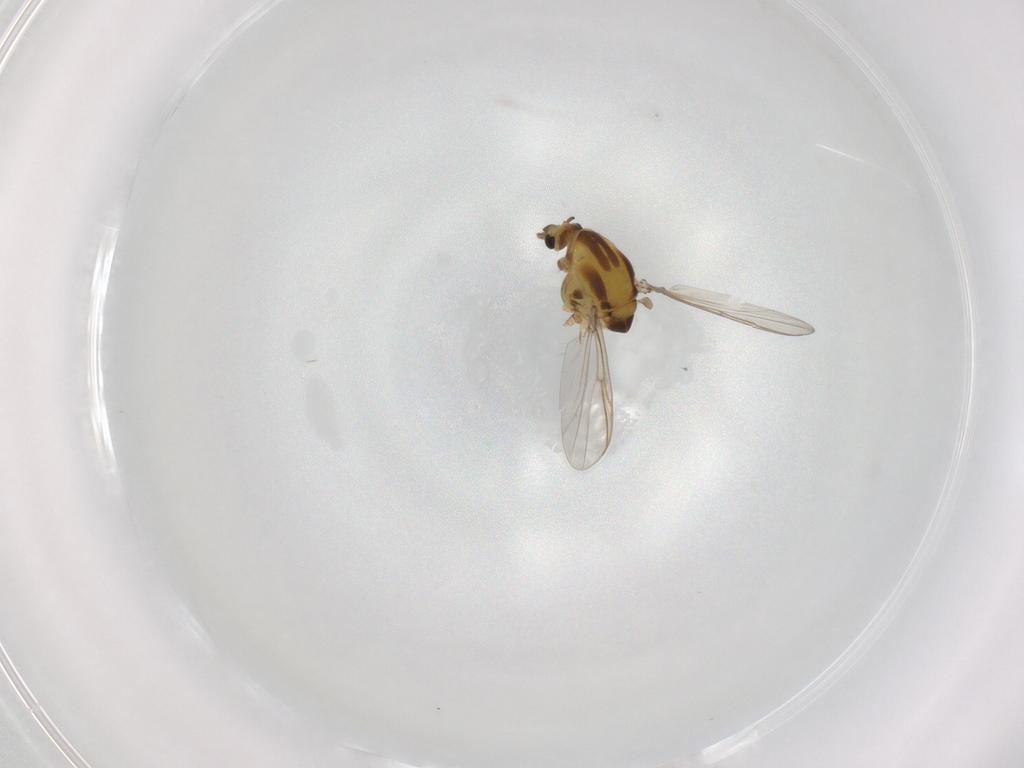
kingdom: Animalia
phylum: Arthropoda
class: Insecta
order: Diptera
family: Chironomidae
